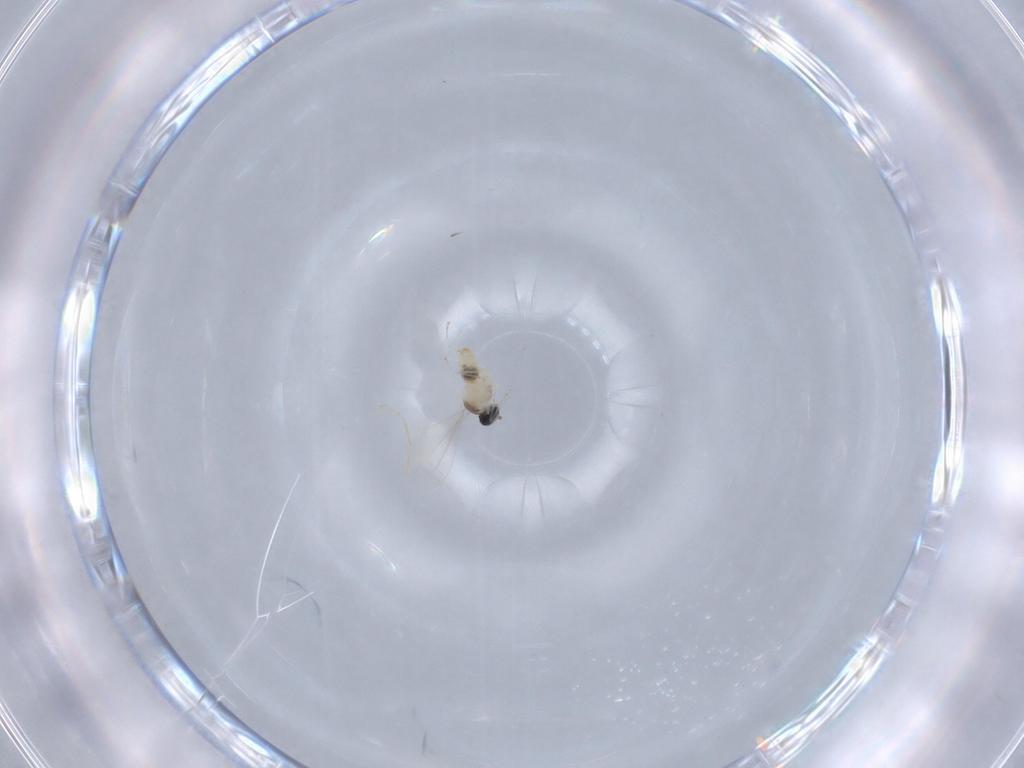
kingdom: Animalia
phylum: Arthropoda
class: Insecta
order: Diptera
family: Cecidomyiidae
